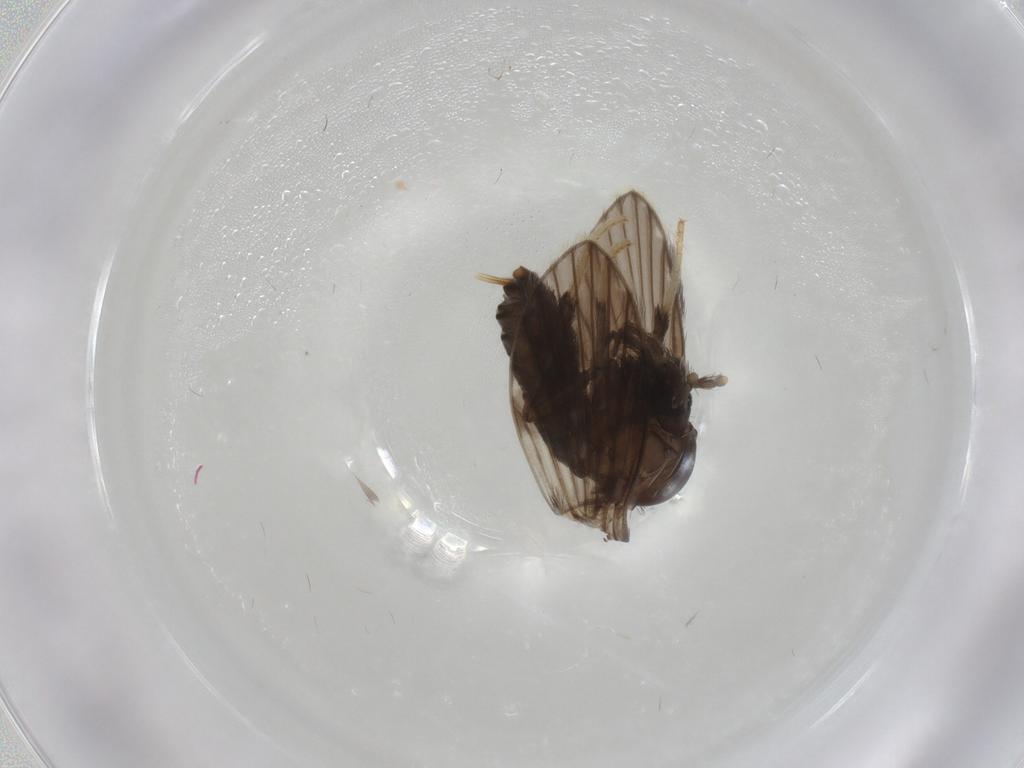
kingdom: Animalia
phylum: Arthropoda
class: Insecta
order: Diptera
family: Psychodidae
